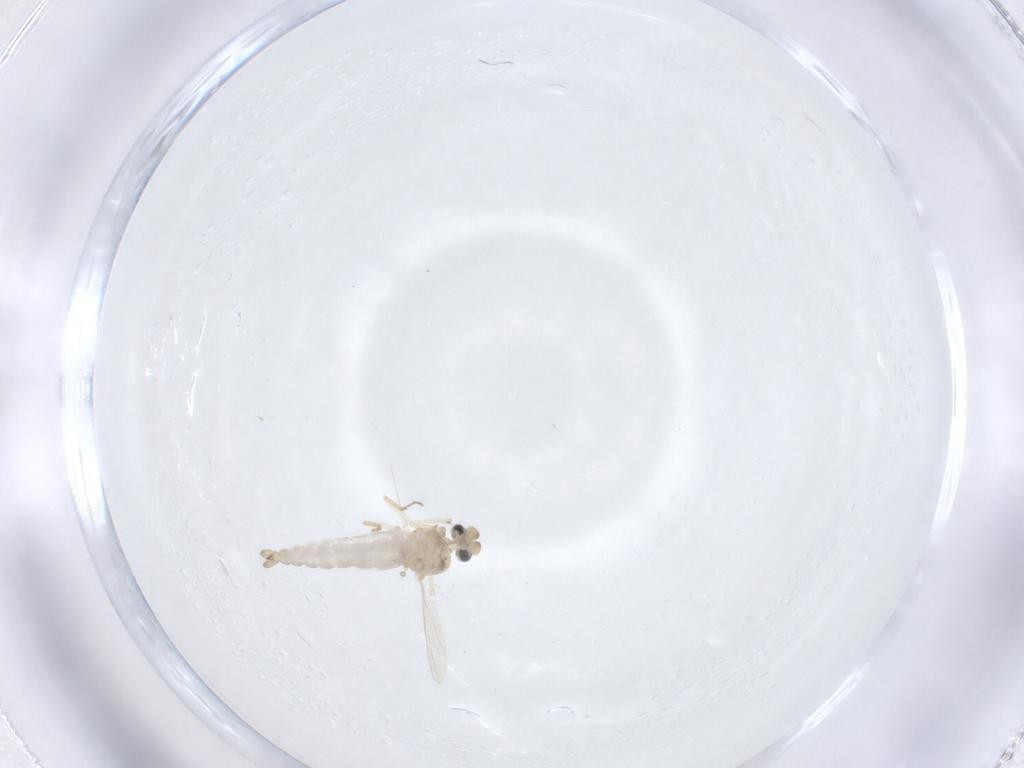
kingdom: Animalia
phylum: Arthropoda
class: Insecta
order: Diptera
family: Ceratopogonidae
